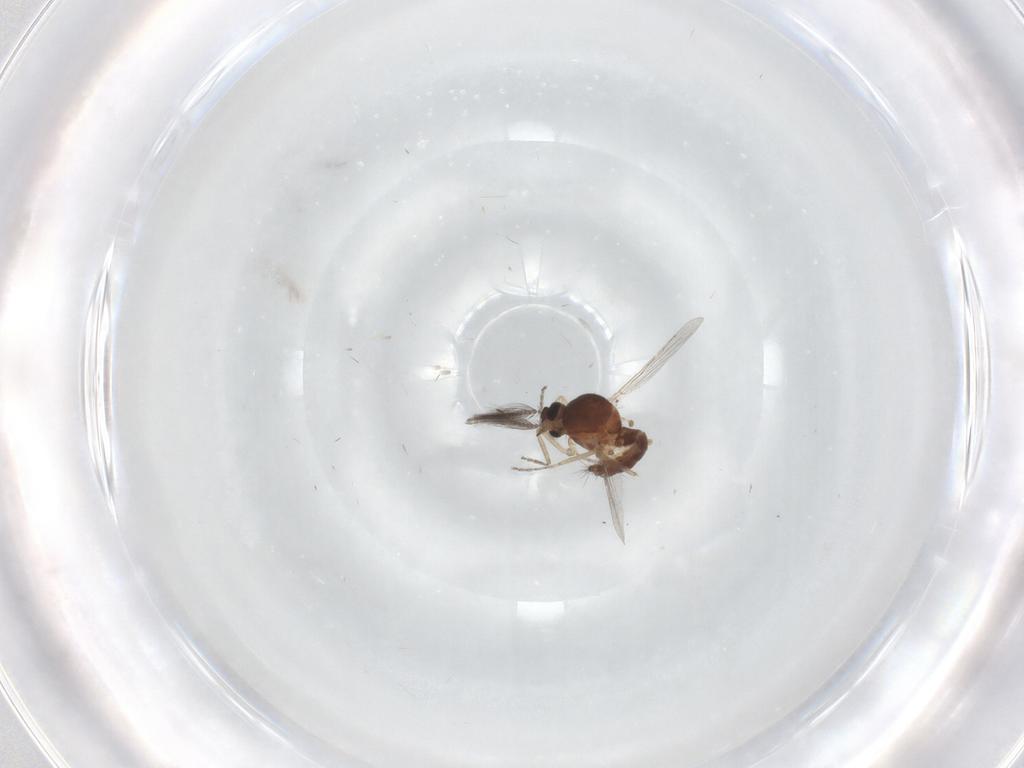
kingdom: Animalia
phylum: Arthropoda
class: Insecta
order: Diptera
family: Ceratopogonidae
